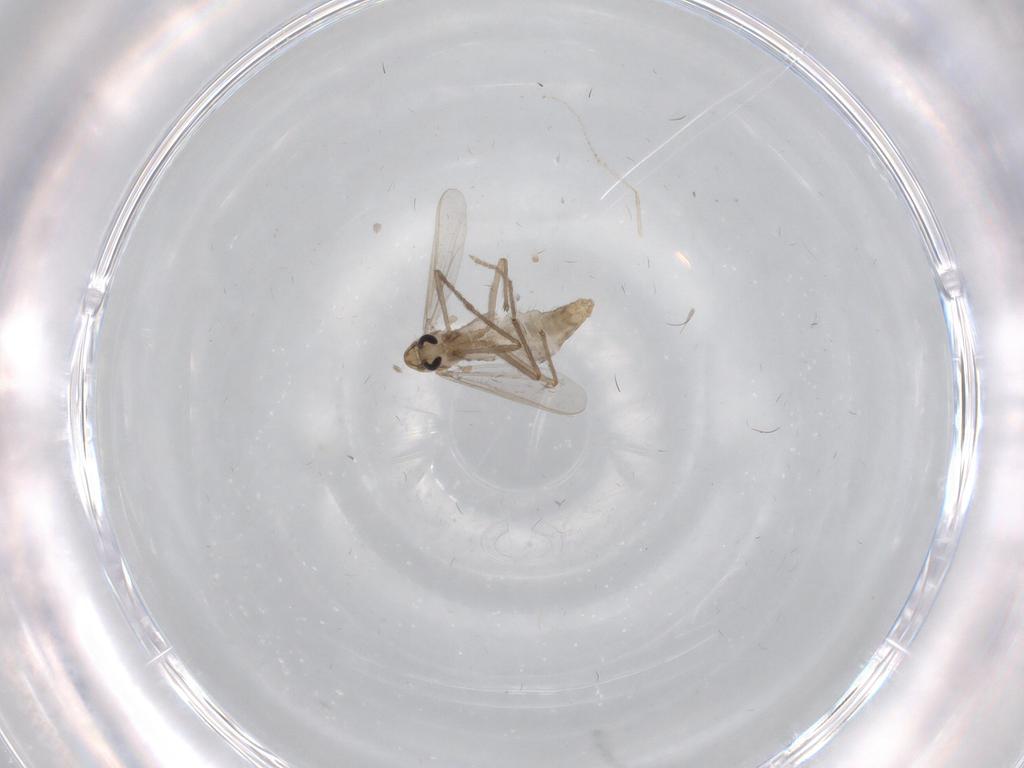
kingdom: Animalia
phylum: Arthropoda
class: Insecta
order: Diptera
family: Chironomidae
